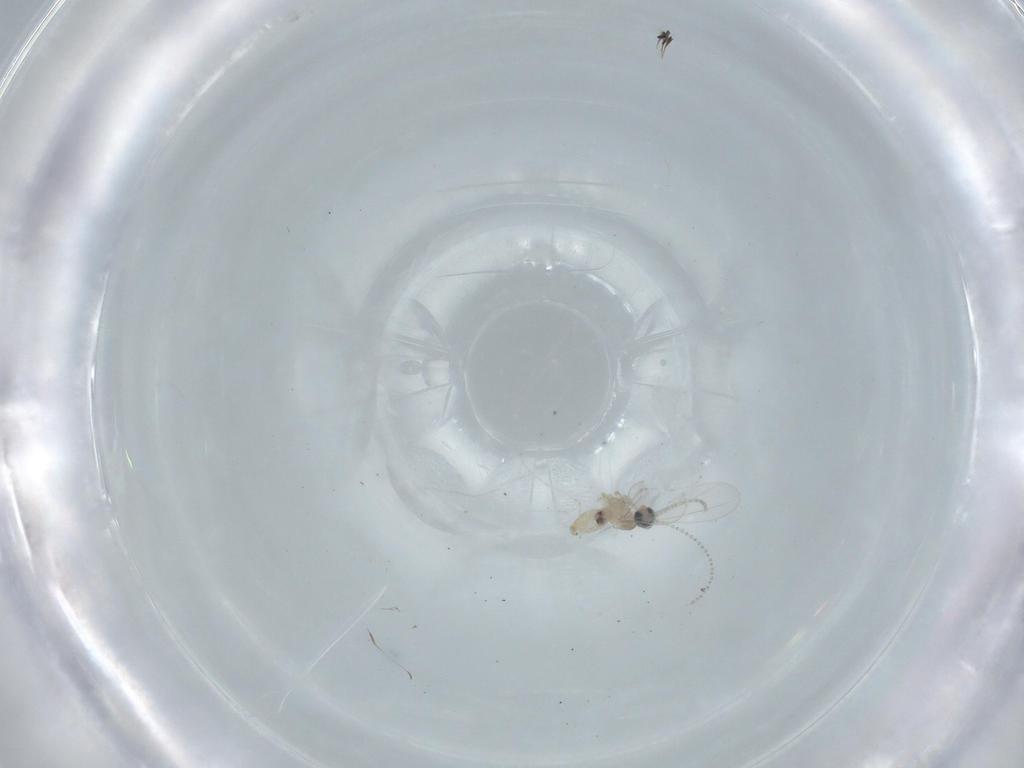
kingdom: Animalia
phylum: Arthropoda
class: Insecta
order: Diptera
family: Cecidomyiidae
